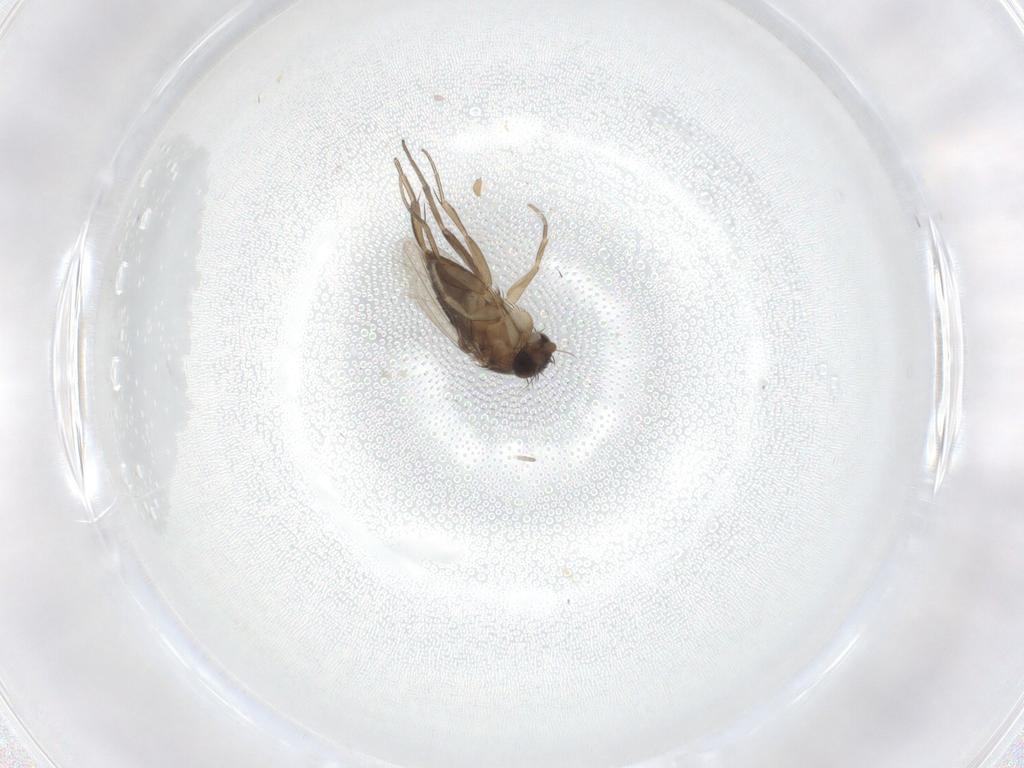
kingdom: Animalia
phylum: Arthropoda
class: Insecta
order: Diptera
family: Phoridae
